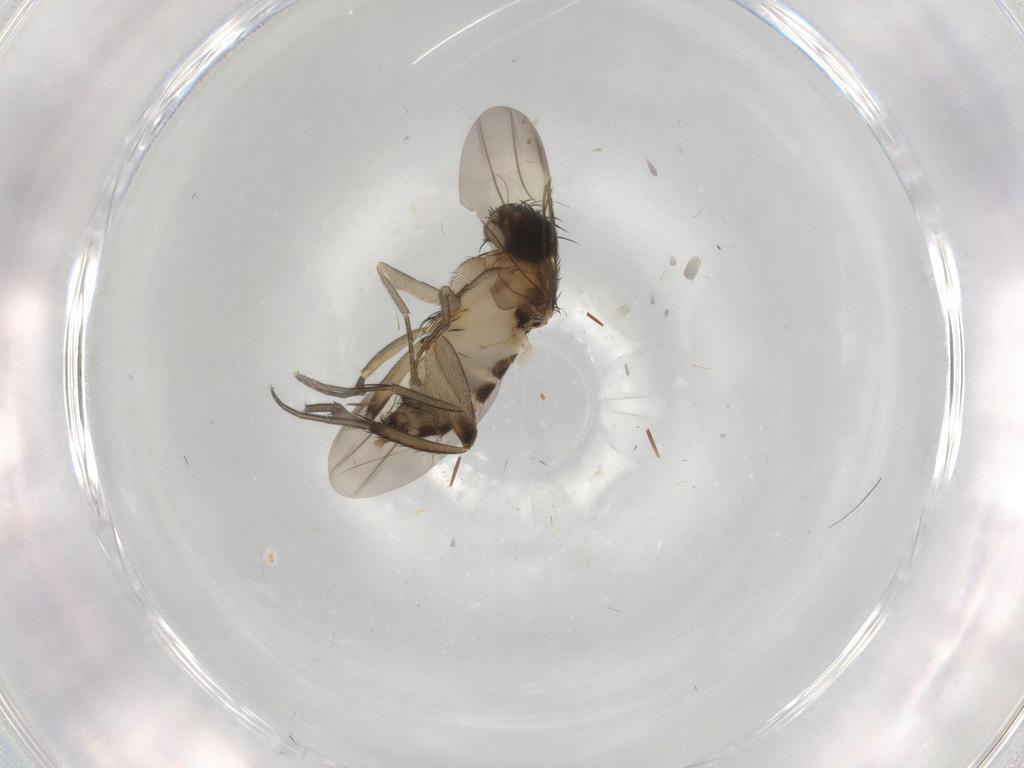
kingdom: Animalia
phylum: Arthropoda
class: Insecta
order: Diptera
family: Phoridae
